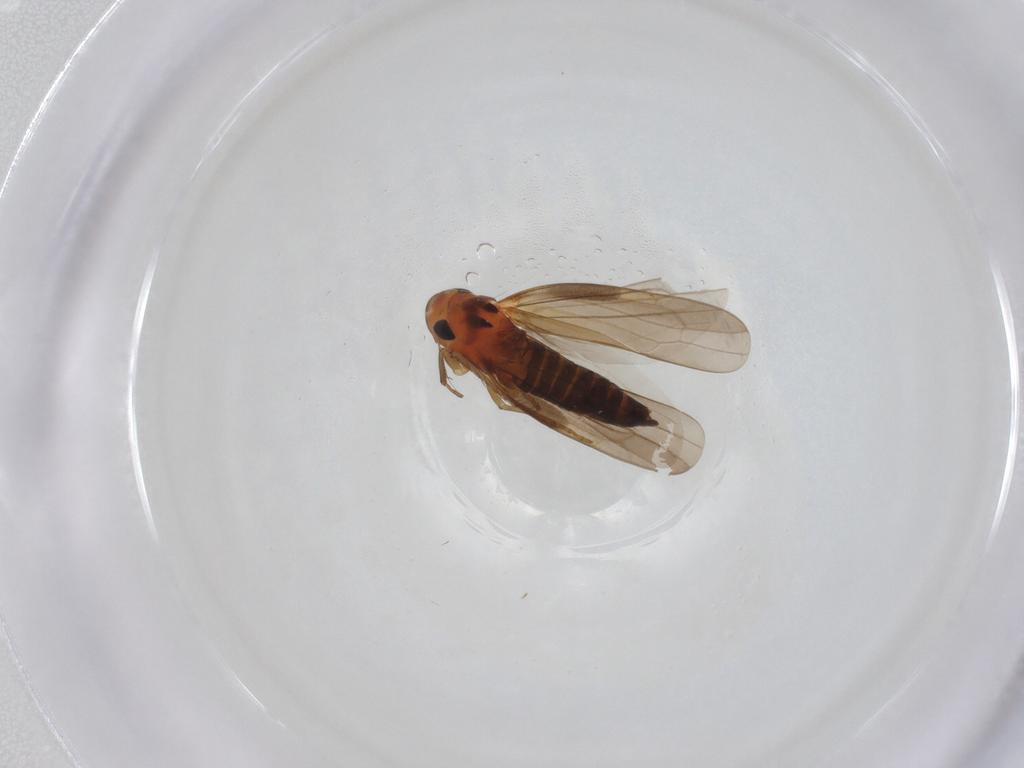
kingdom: Animalia
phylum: Arthropoda
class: Insecta
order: Hemiptera
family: Cicadellidae
